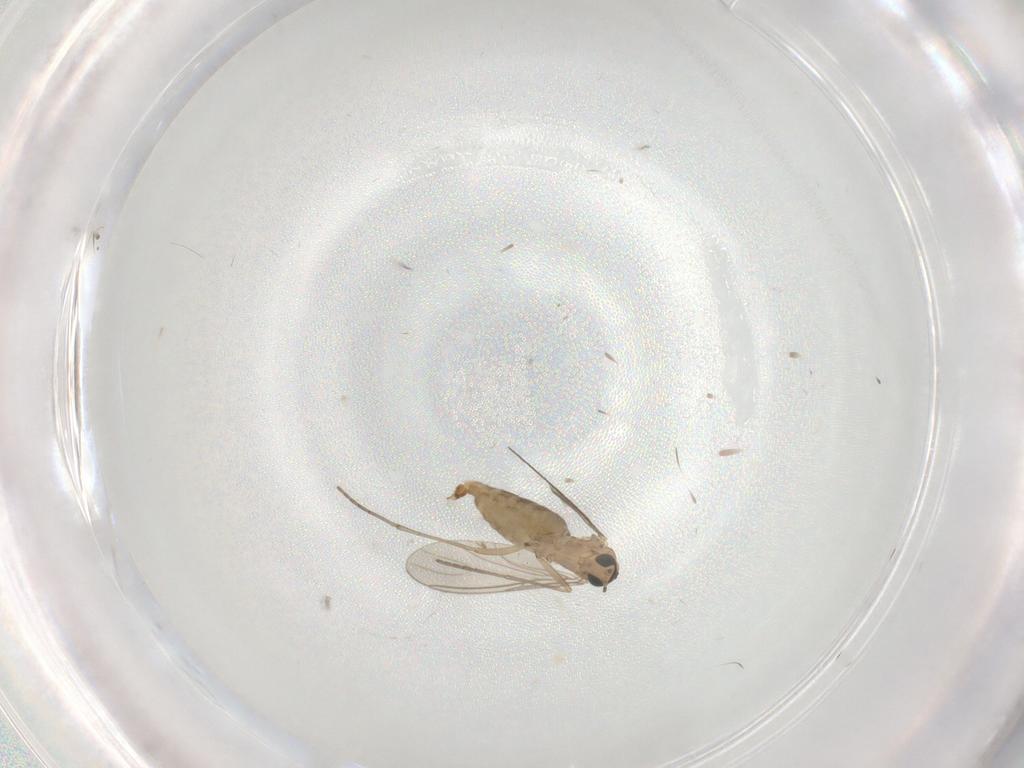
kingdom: Animalia
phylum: Arthropoda
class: Insecta
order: Diptera
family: Sciaridae
